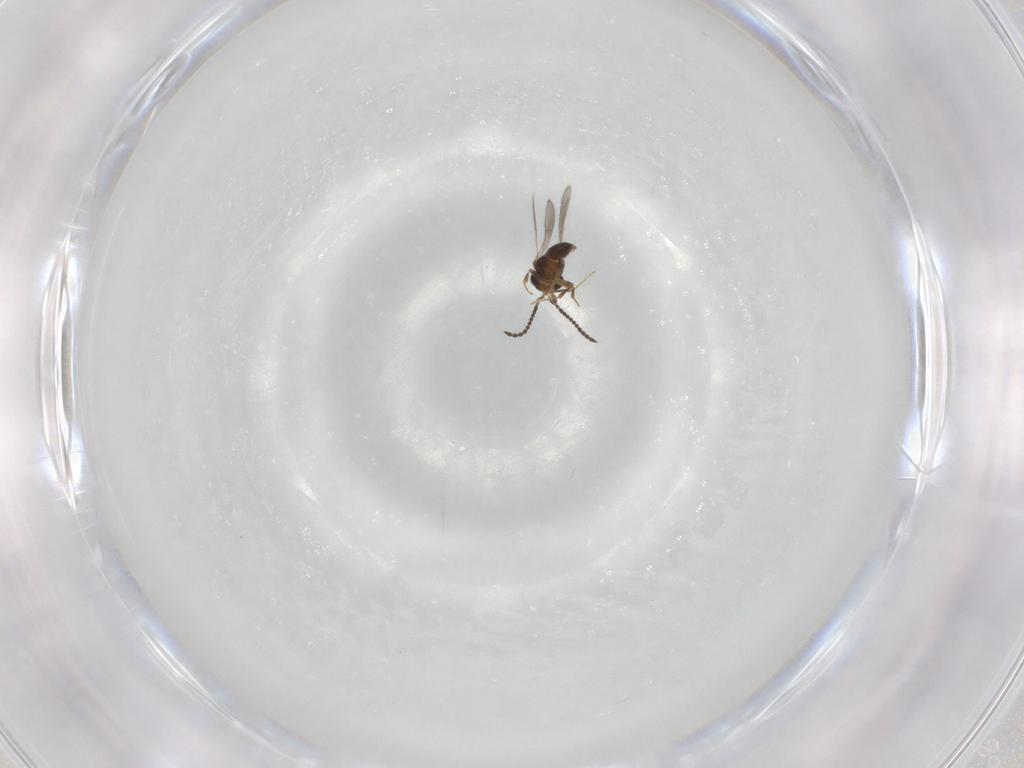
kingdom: Animalia
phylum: Arthropoda
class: Insecta
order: Hymenoptera
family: Scelionidae
